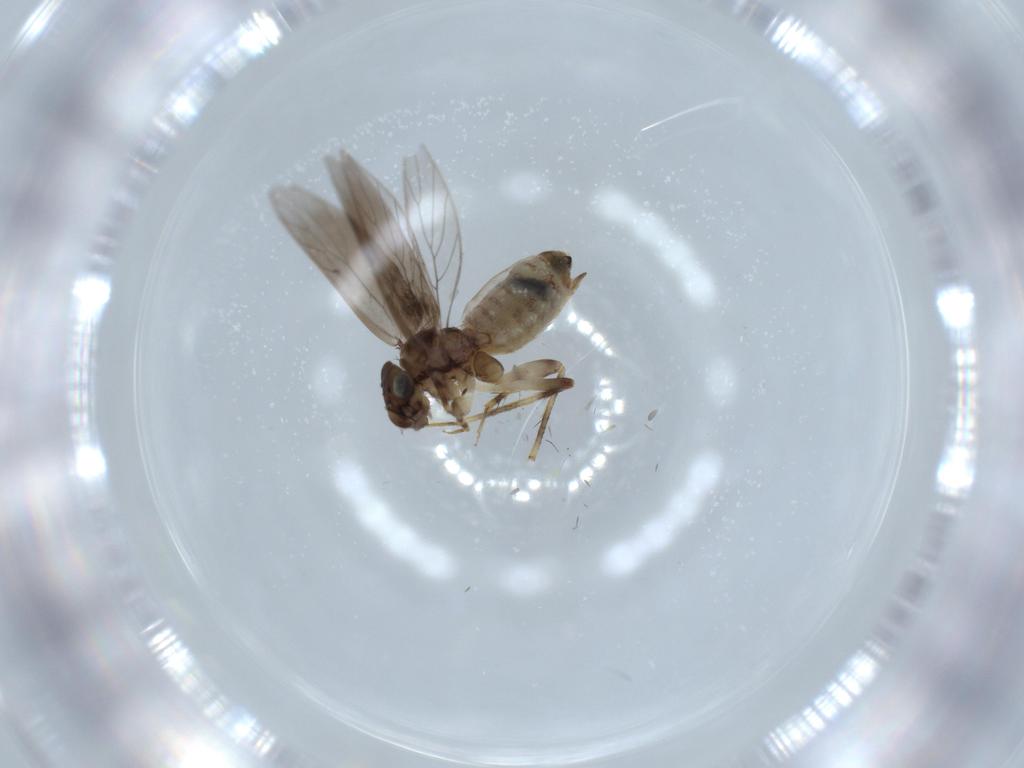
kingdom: Animalia
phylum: Arthropoda
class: Insecta
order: Psocodea
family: Lepidopsocidae
